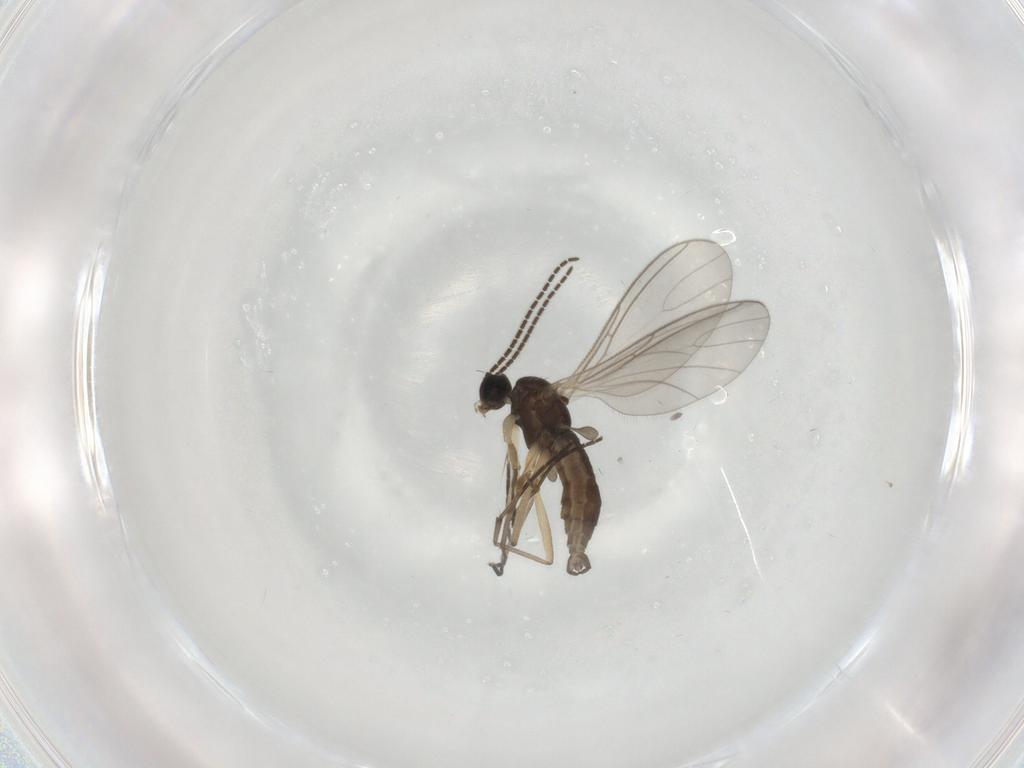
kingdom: Animalia
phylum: Arthropoda
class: Insecta
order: Diptera
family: Sciaridae
